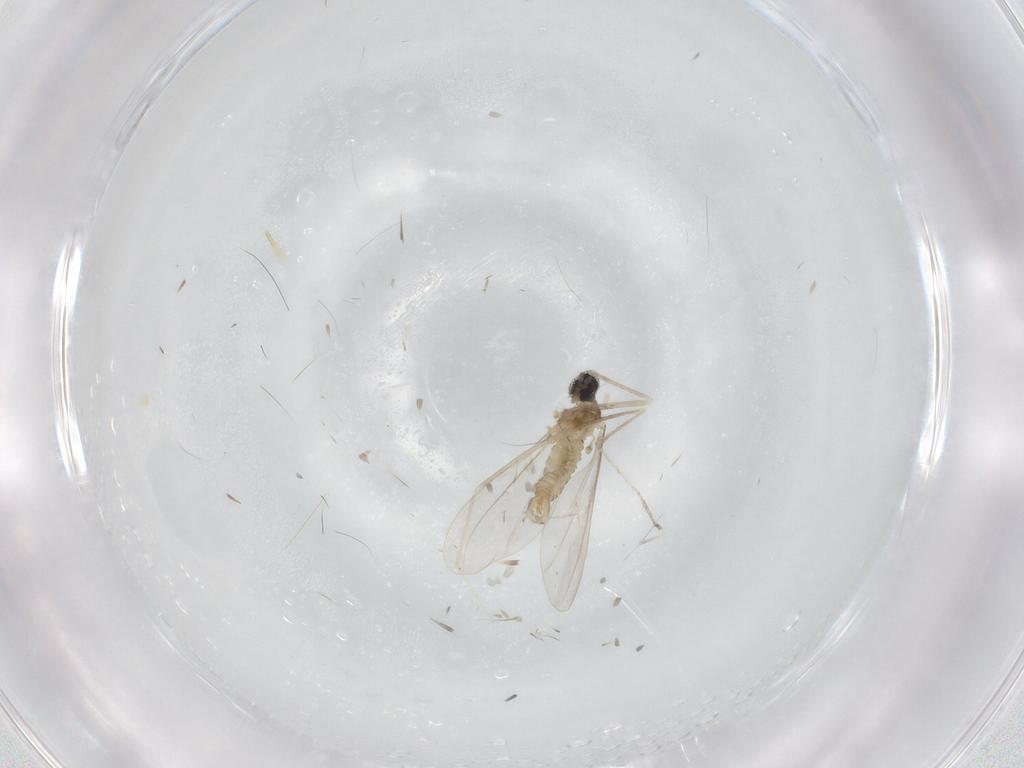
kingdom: Animalia
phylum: Arthropoda
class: Insecta
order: Diptera
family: Cecidomyiidae
